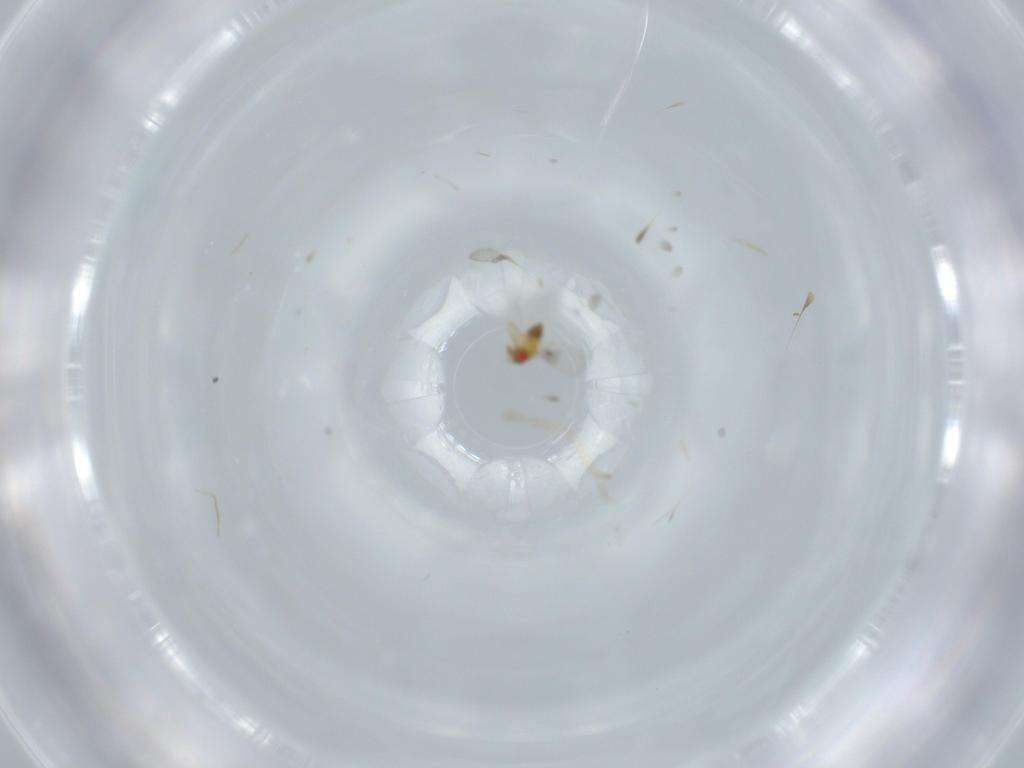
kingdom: Animalia
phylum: Arthropoda
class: Insecta
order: Hymenoptera
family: Trichogrammatidae
